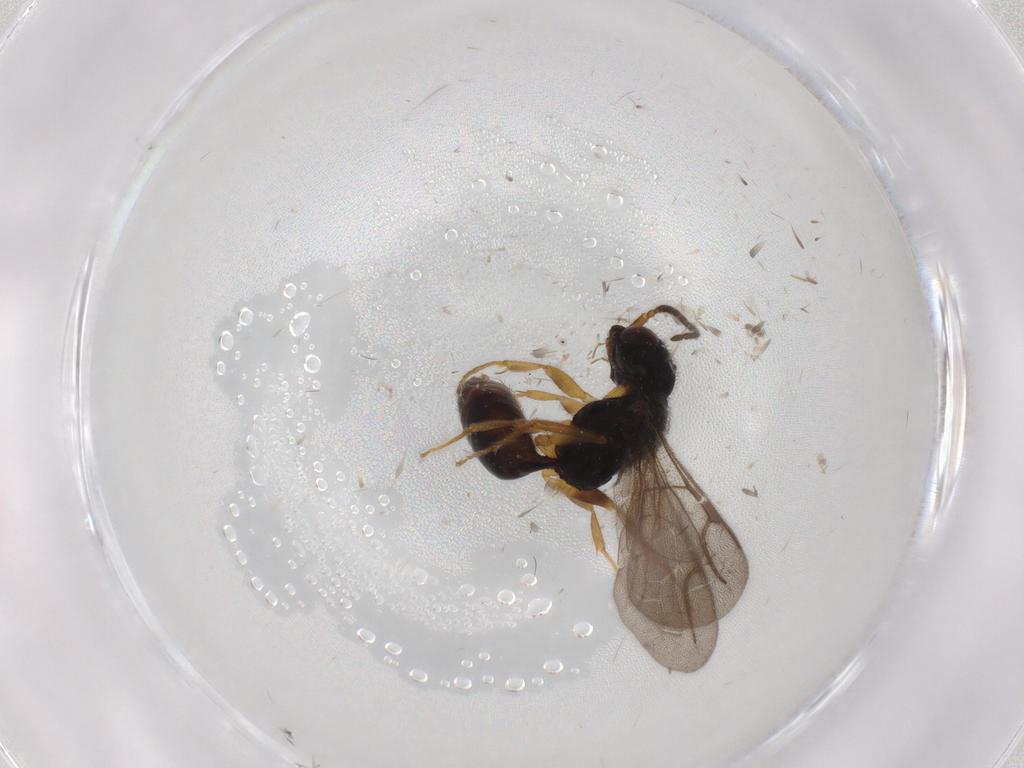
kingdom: Animalia
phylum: Arthropoda
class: Insecta
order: Hymenoptera
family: Bethylidae
